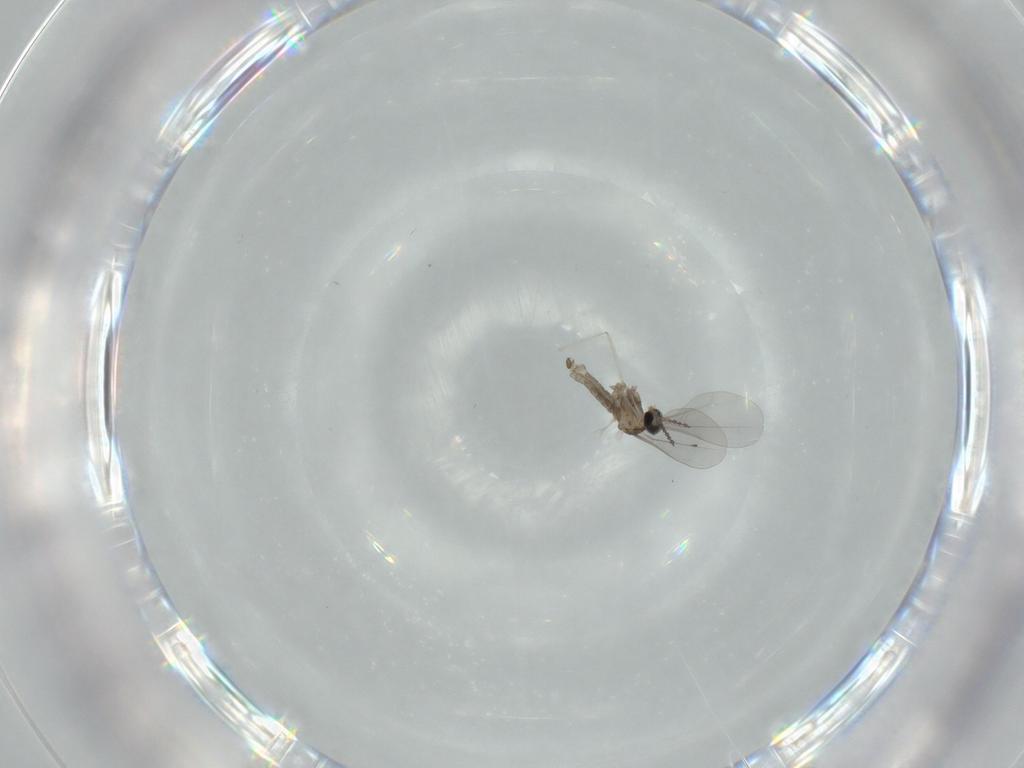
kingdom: Animalia
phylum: Arthropoda
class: Insecta
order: Diptera
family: Cecidomyiidae
